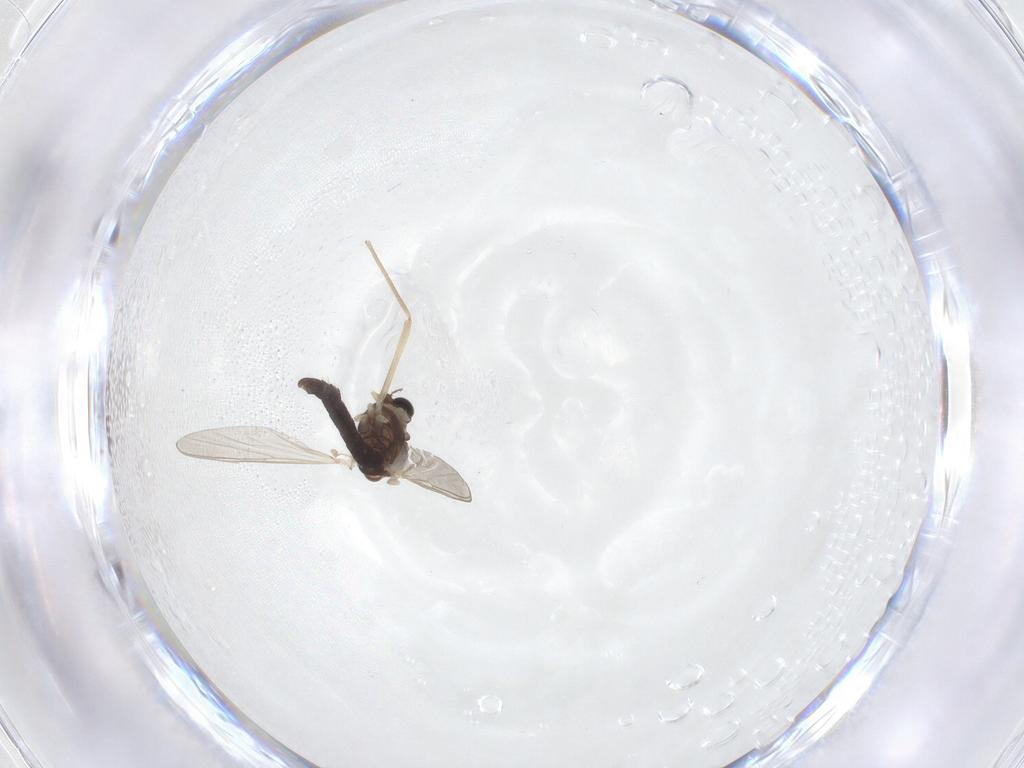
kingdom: Animalia
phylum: Arthropoda
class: Insecta
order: Diptera
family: Chironomidae
